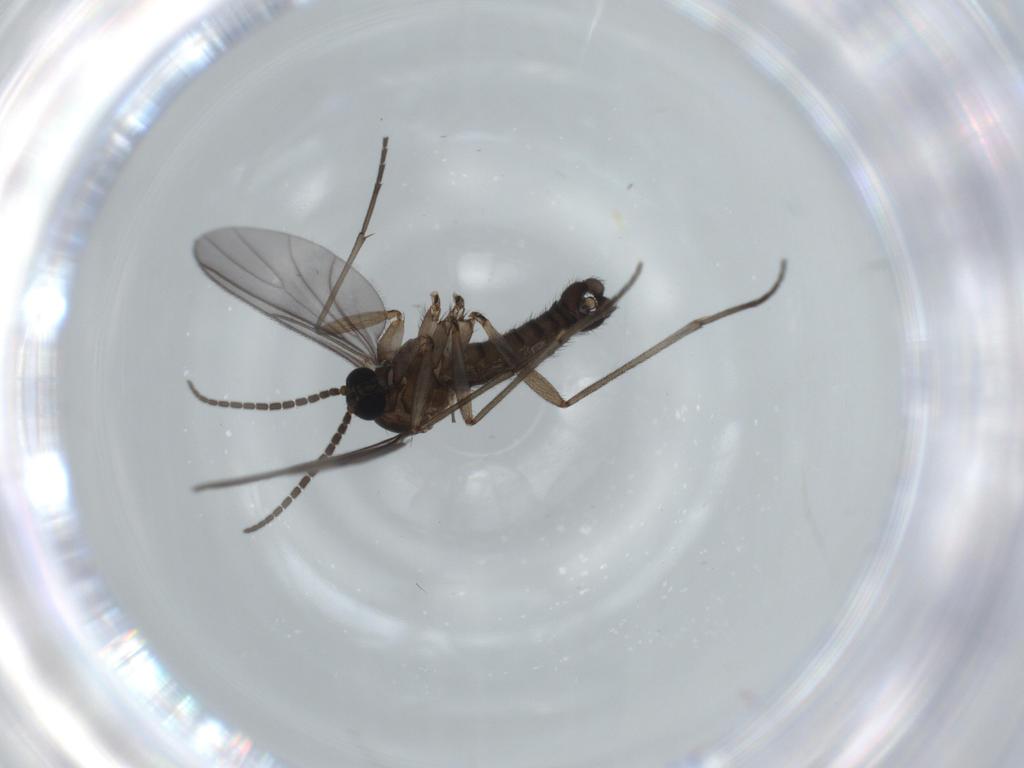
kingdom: Animalia
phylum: Arthropoda
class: Insecta
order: Diptera
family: Sciaridae
